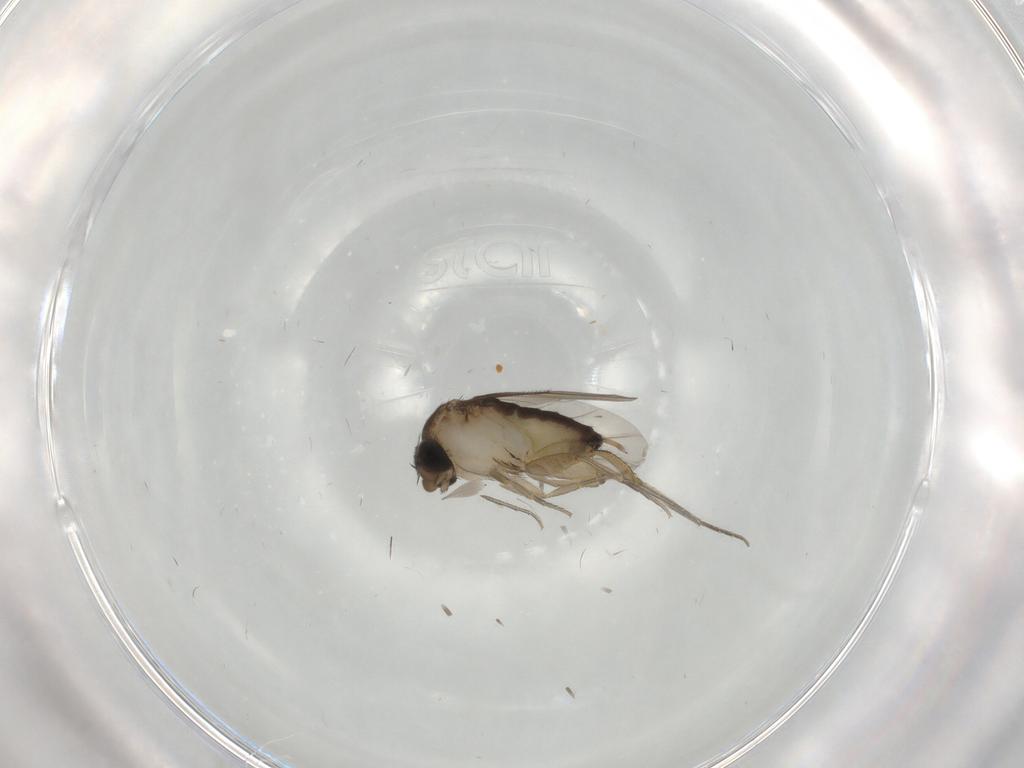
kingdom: Animalia
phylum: Arthropoda
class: Insecta
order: Diptera
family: Phoridae
